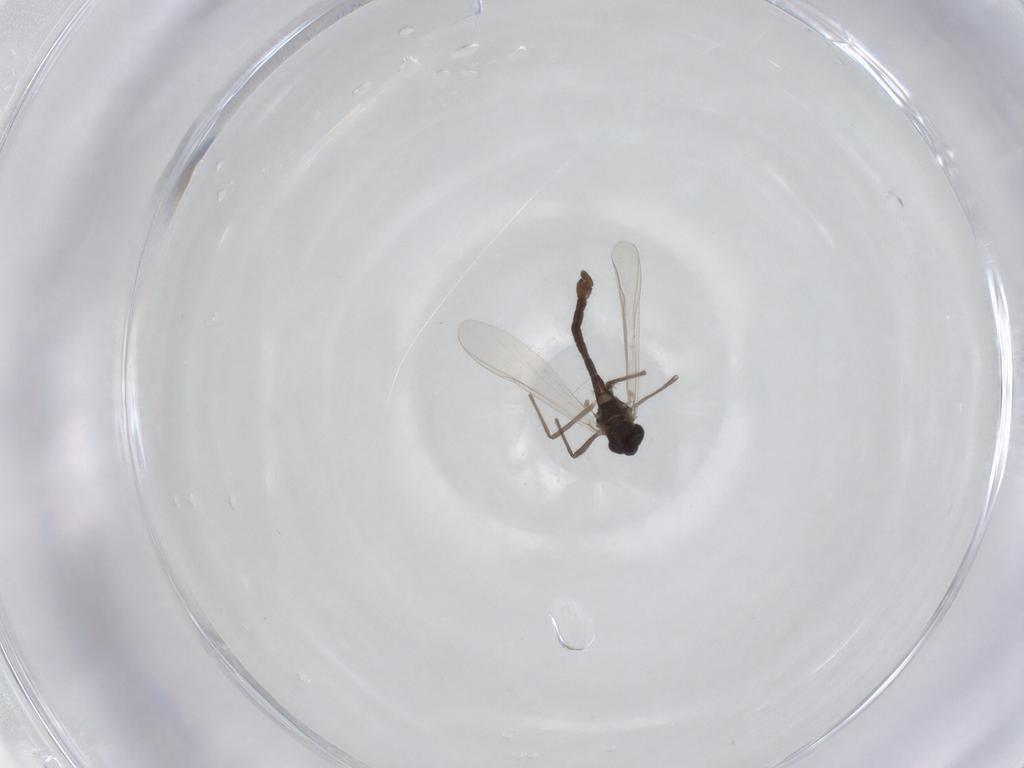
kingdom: Animalia
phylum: Arthropoda
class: Insecta
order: Diptera
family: Chironomidae
